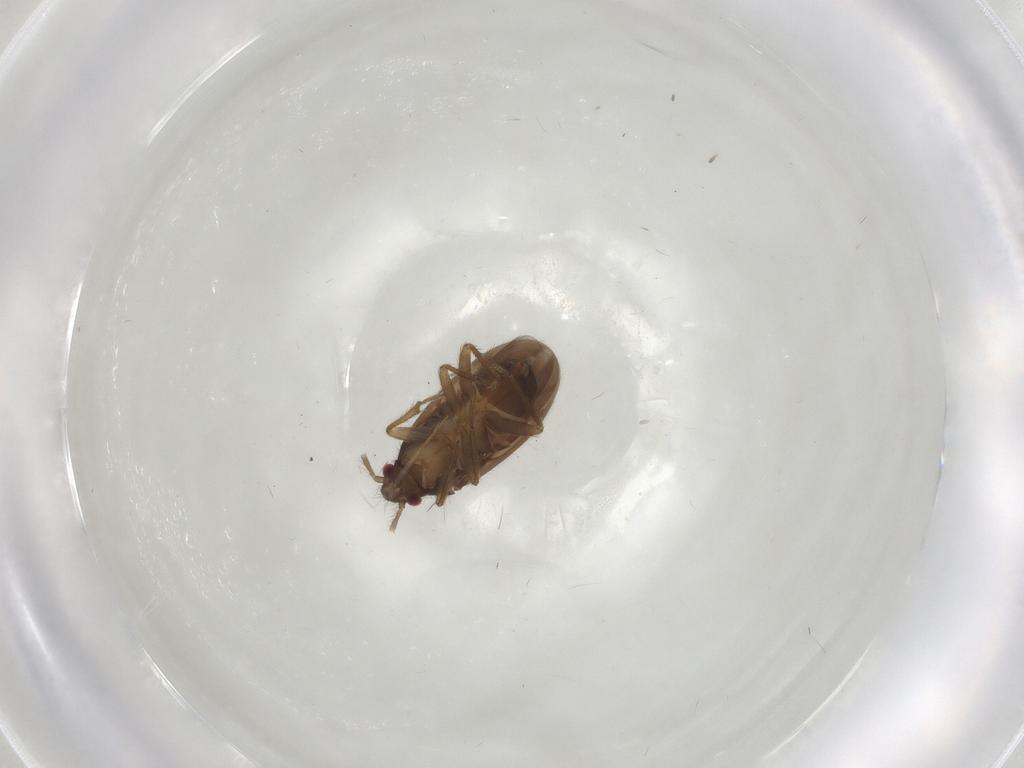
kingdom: Animalia
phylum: Arthropoda
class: Insecta
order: Hemiptera
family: Ceratocombidae
